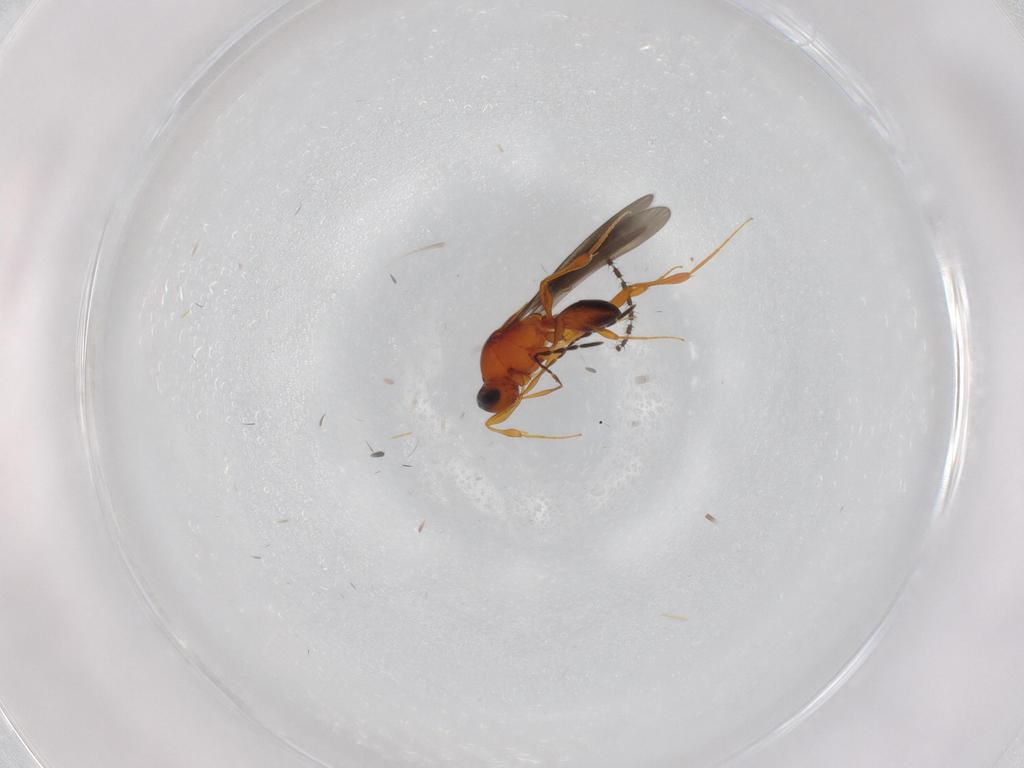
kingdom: Animalia
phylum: Arthropoda
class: Insecta
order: Hymenoptera
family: Platygastridae
